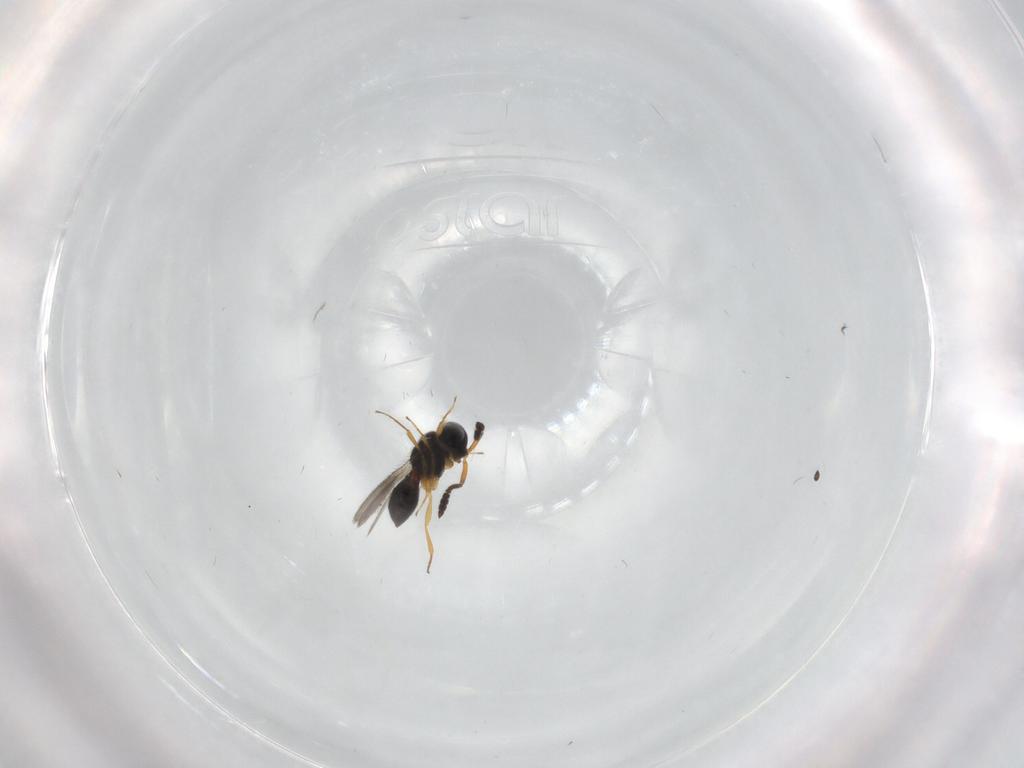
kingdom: Animalia
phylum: Arthropoda
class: Insecta
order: Hymenoptera
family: Scelionidae
